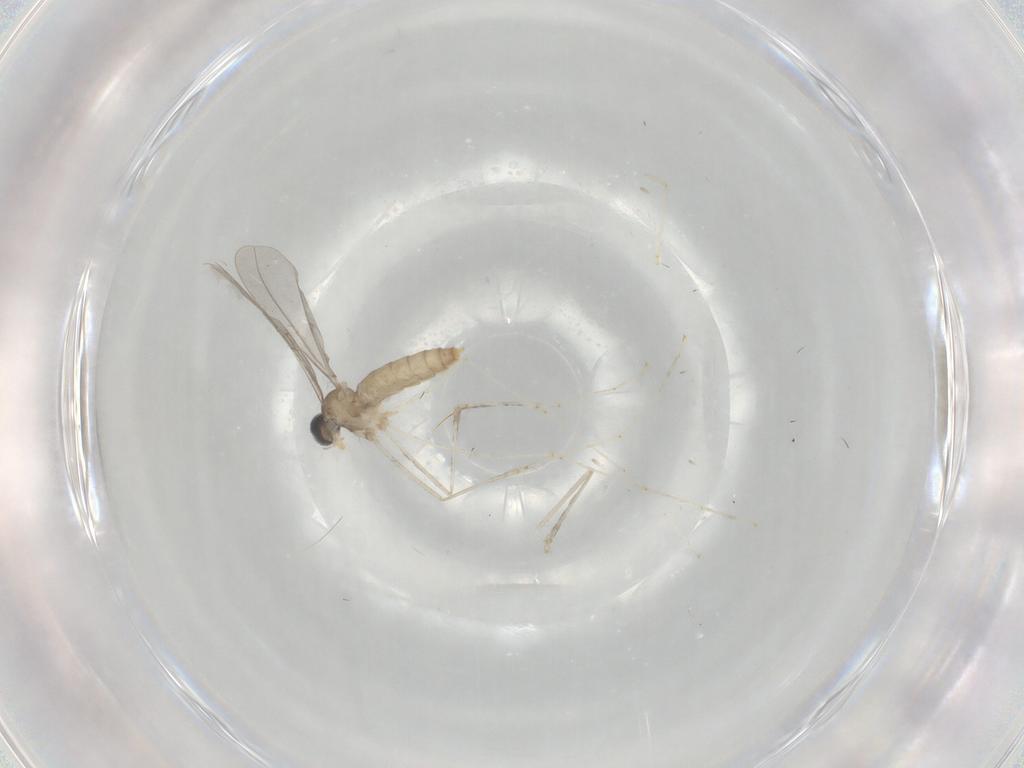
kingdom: Animalia
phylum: Arthropoda
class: Insecta
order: Diptera
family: Cecidomyiidae
